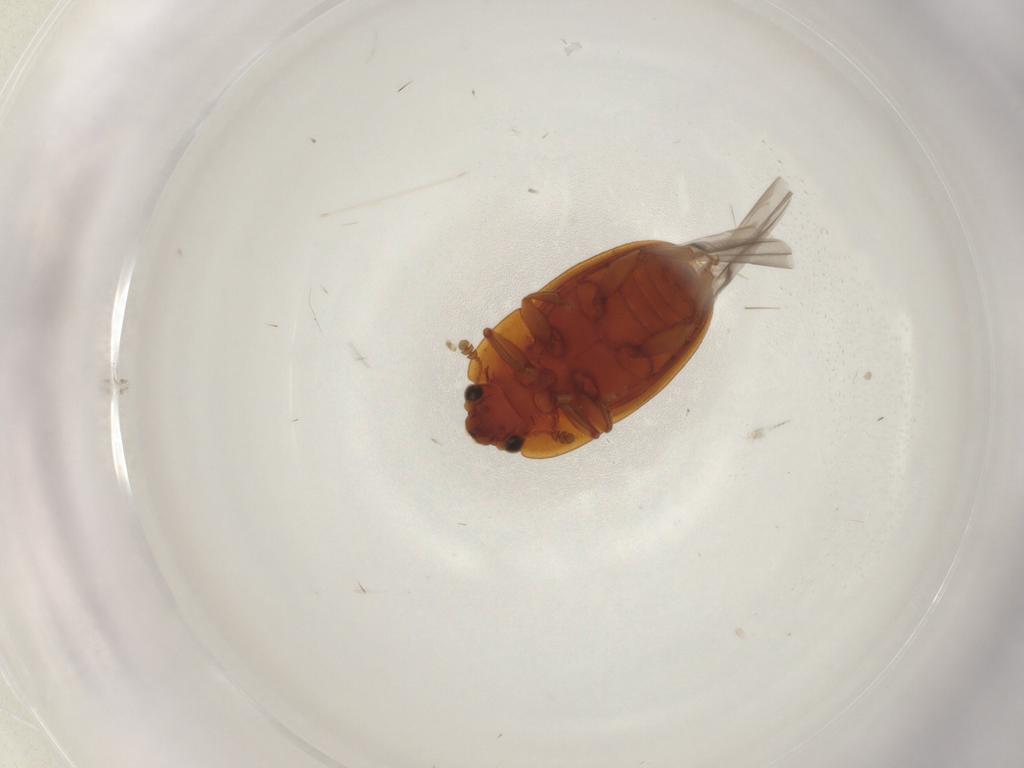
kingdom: Animalia
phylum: Arthropoda
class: Insecta
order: Coleoptera
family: Nitidulidae
